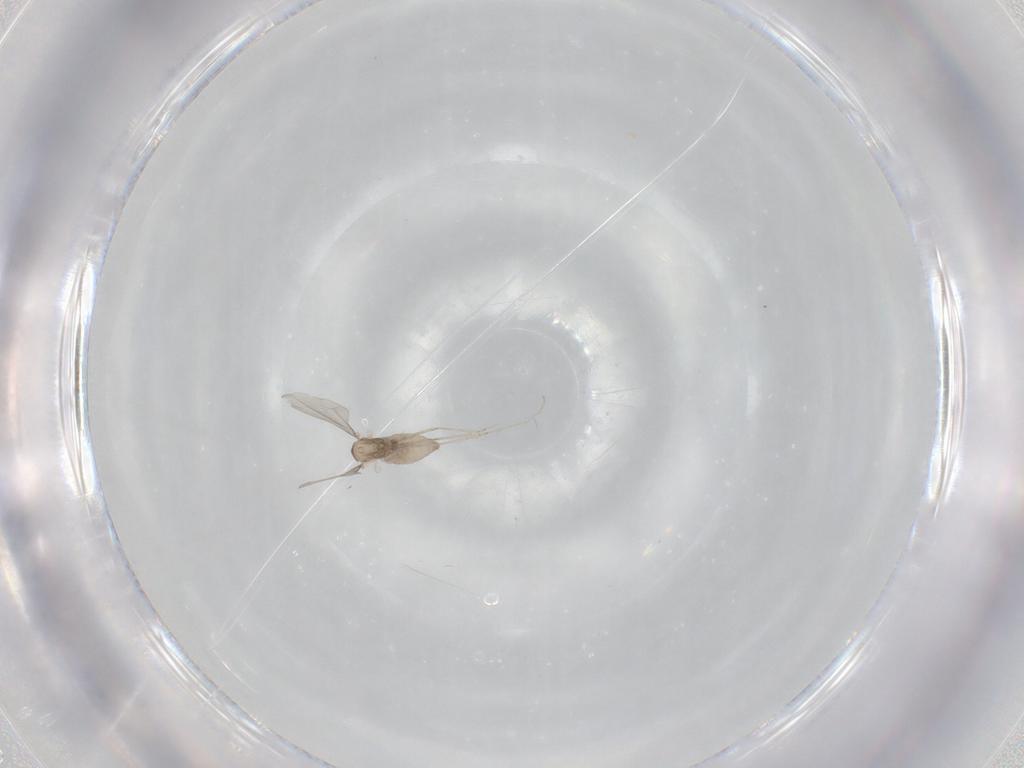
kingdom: Animalia
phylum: Arthropoda
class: Insecta
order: Diptera
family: Cecidomyiidae
